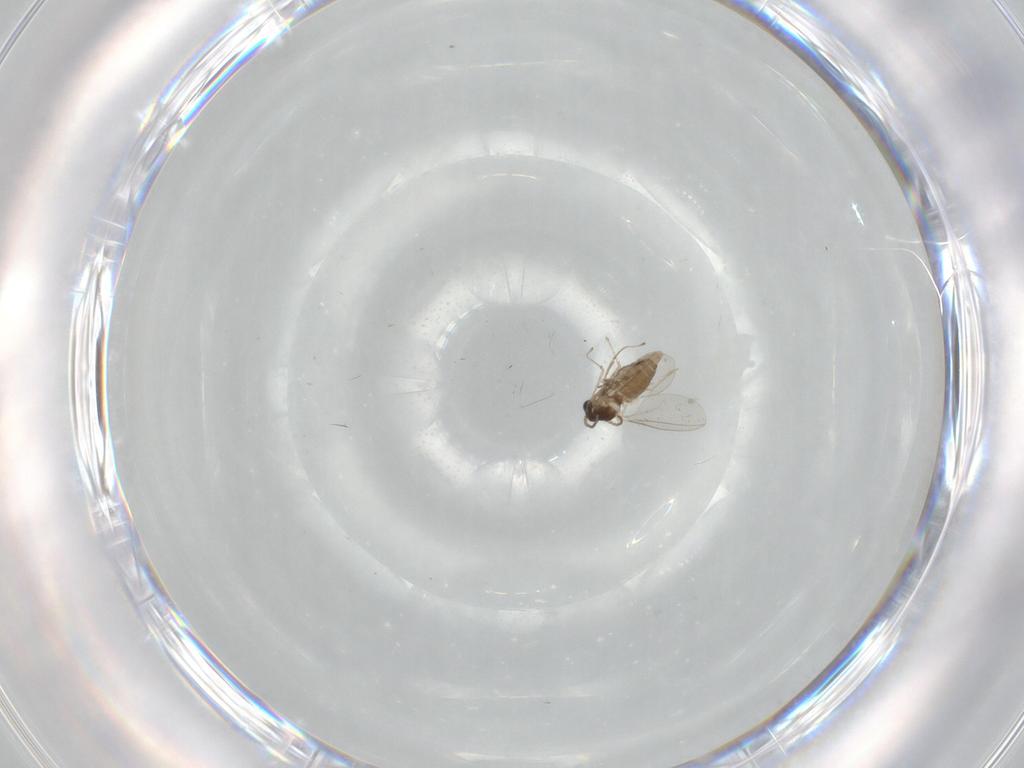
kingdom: Animalia
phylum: Arthropoda
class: Insecta
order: Diptera
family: Cecidomyiidae
